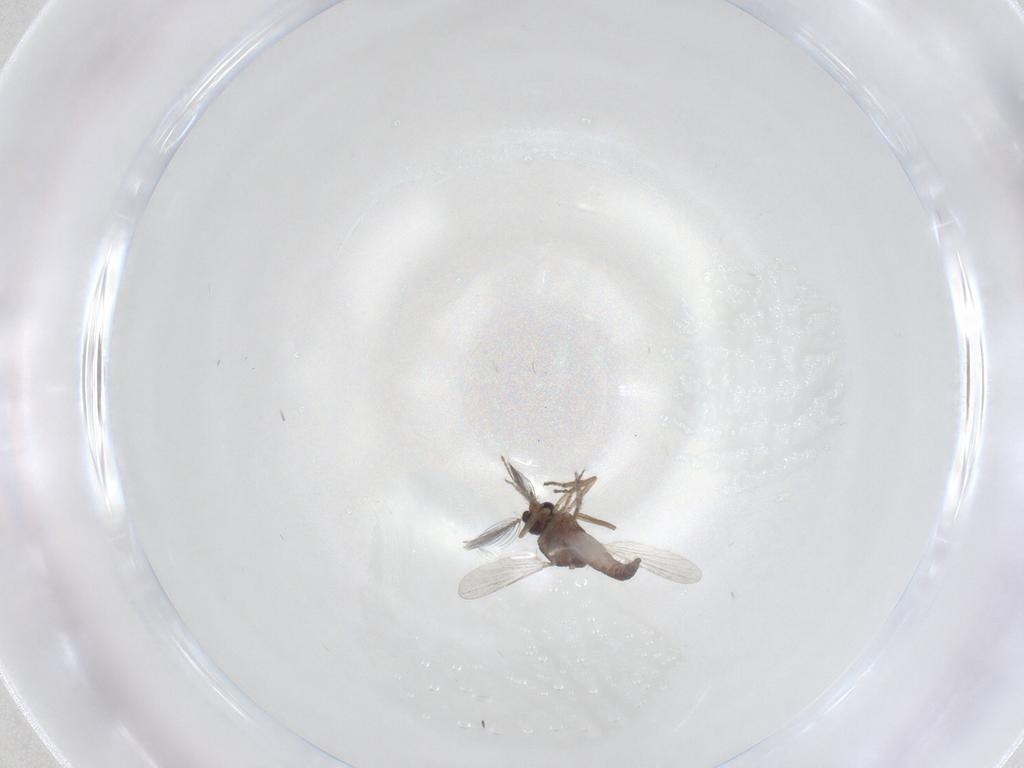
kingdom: Animalia
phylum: Arthropoda
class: Insecta
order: Diptera
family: Ceratopogonidae
